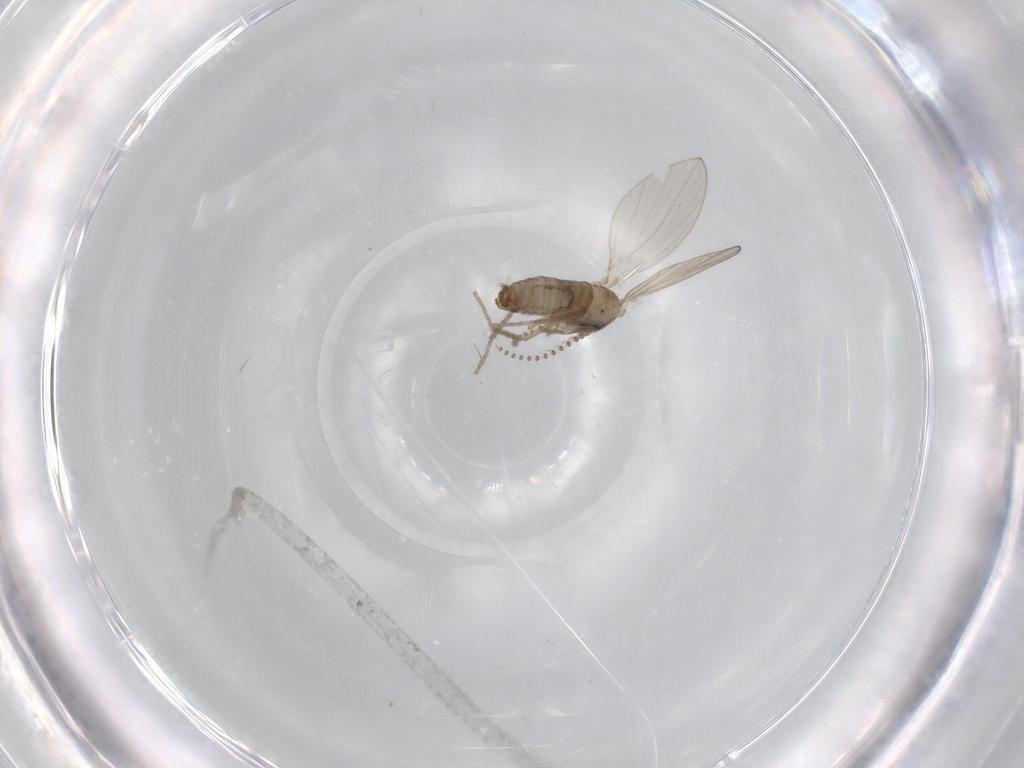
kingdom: Animalia
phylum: Arthropoda
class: Insecta
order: Diptera
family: Psychodidae
